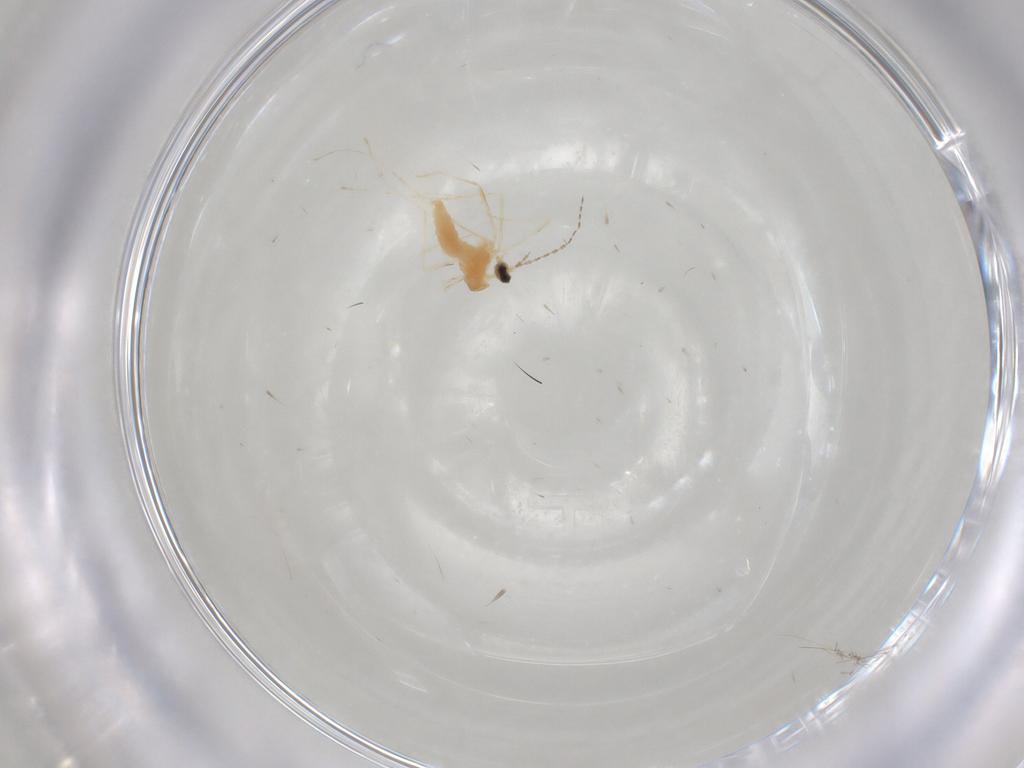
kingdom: Animalia
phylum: Arthropoda
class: Insecta
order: Diptera
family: Cecidomyiidae
